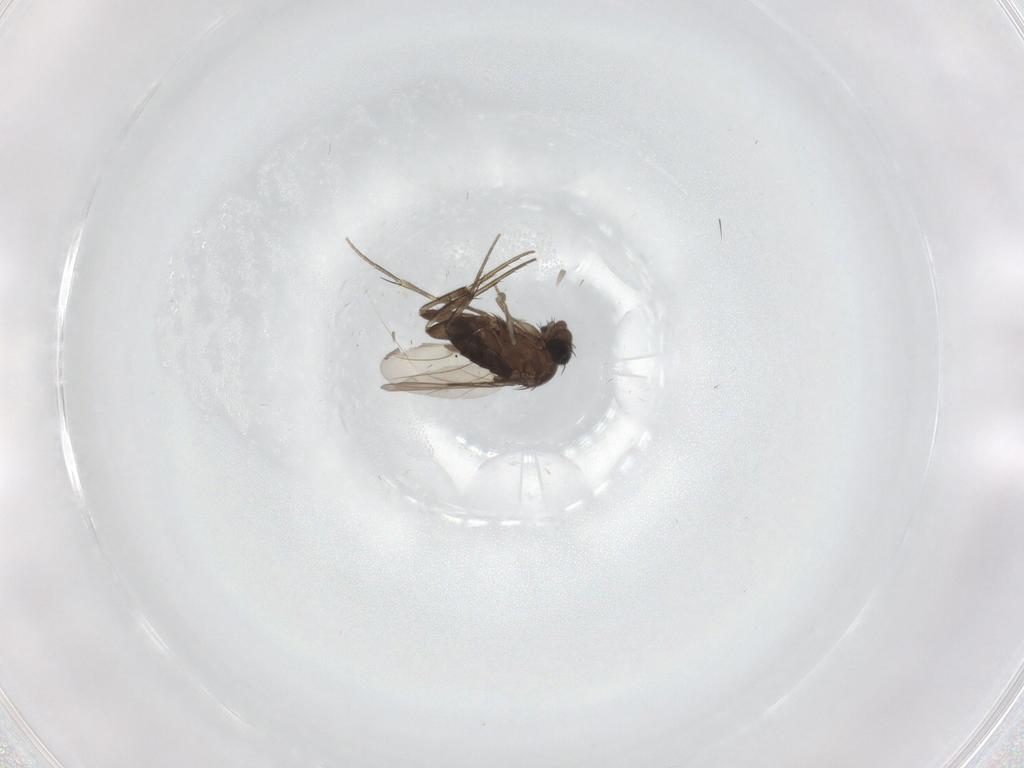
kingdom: Animalia
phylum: Arthropoda
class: Insecta
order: Diptera
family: Phoridae
